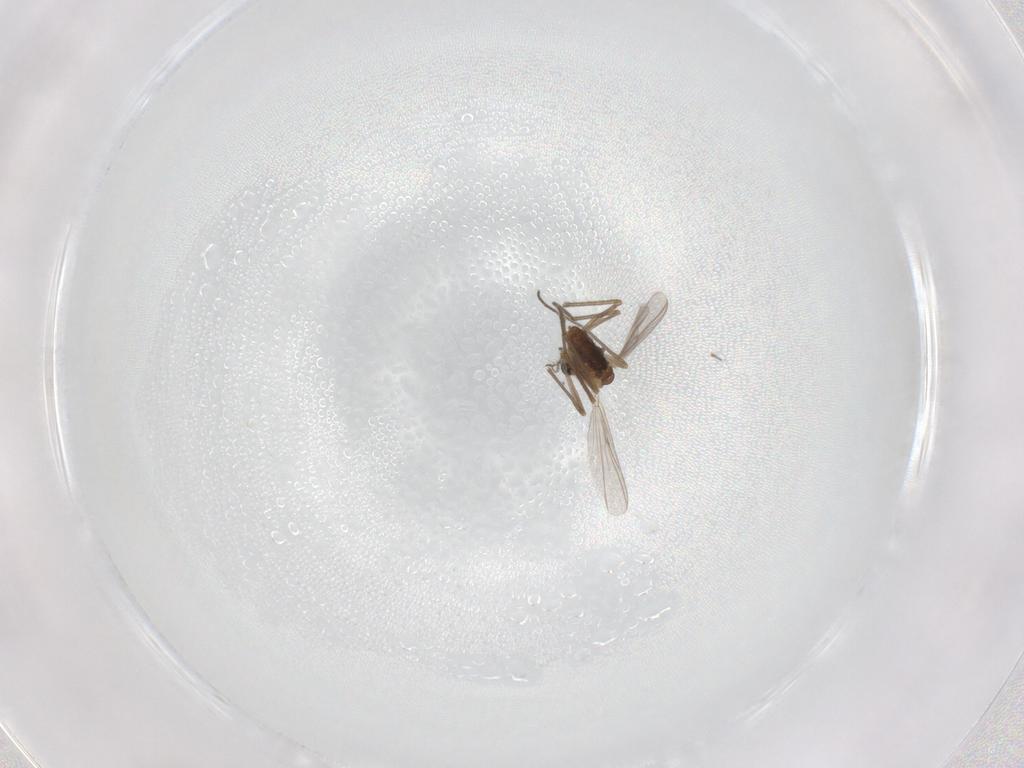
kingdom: Animalia
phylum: Arthropoda
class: Insecta
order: Diptera
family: Chironomidae
